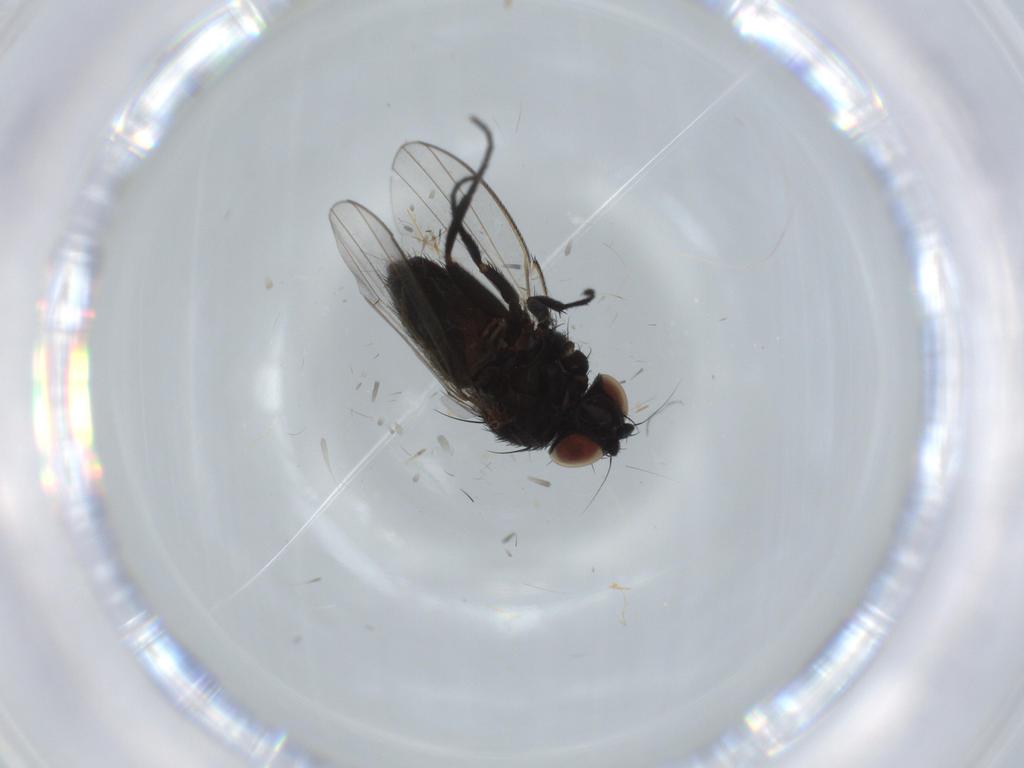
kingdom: Animalia
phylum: Arthropoda
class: Insecta
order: Diptera
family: Milichiidae
